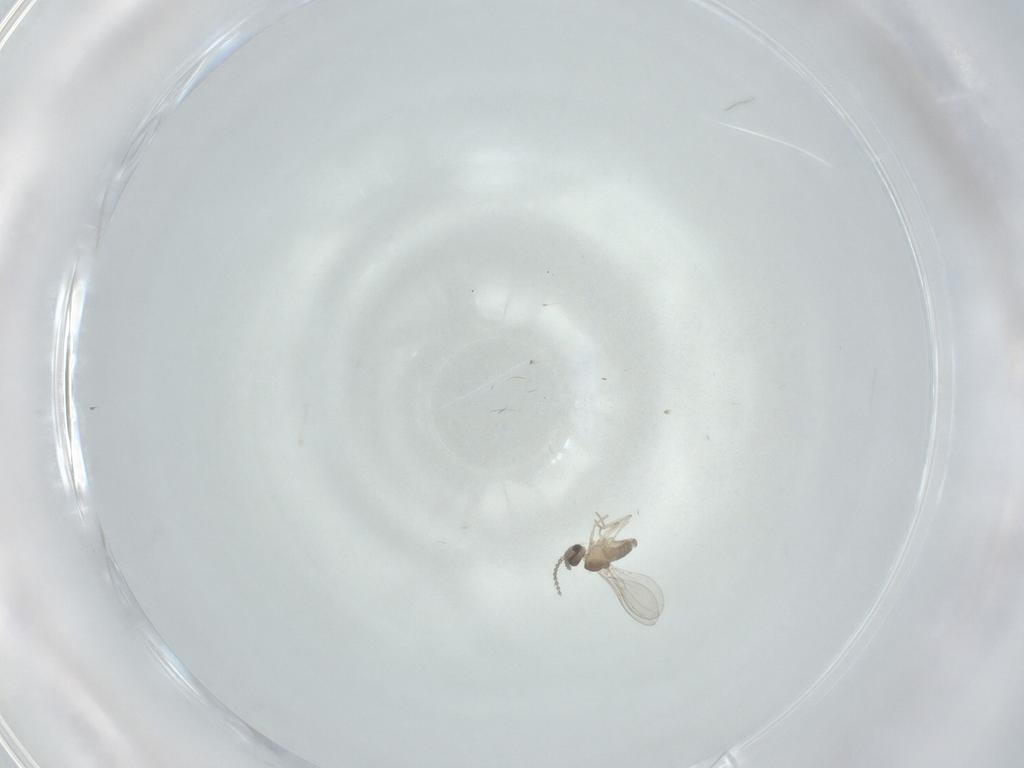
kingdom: Animalia
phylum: Arthropoda
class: Insecta
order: Diptera
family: Cecidomyiidae
